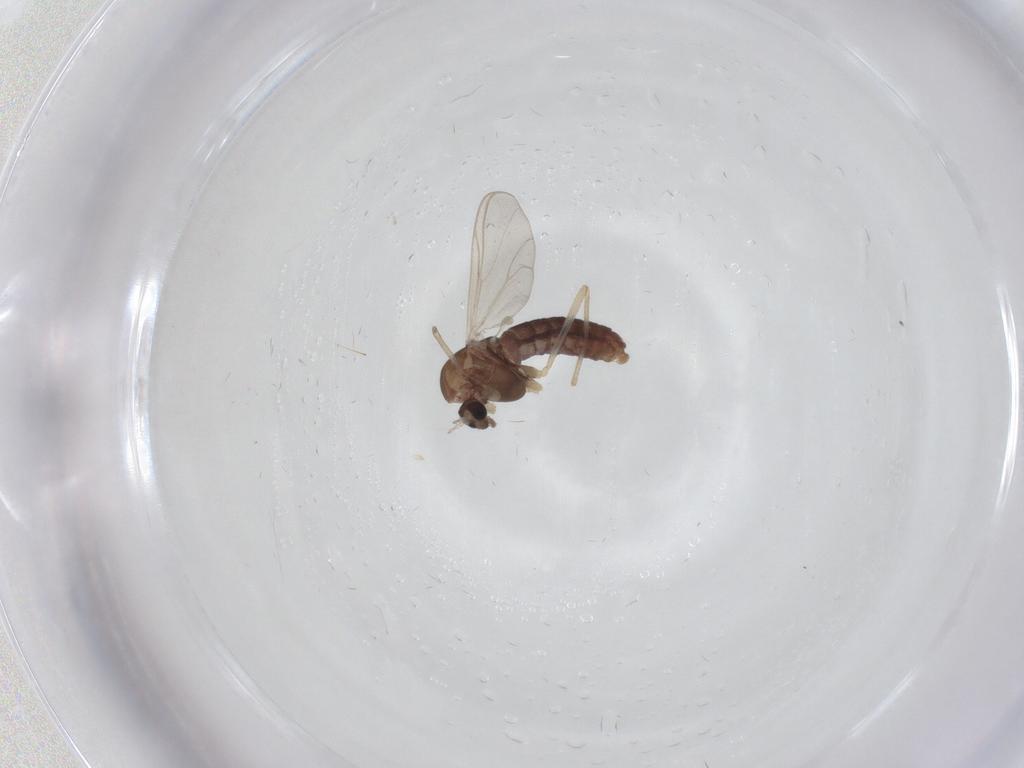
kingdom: Animalia
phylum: Arthropoda
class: Insecta
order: Diptera
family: Chironomidae
